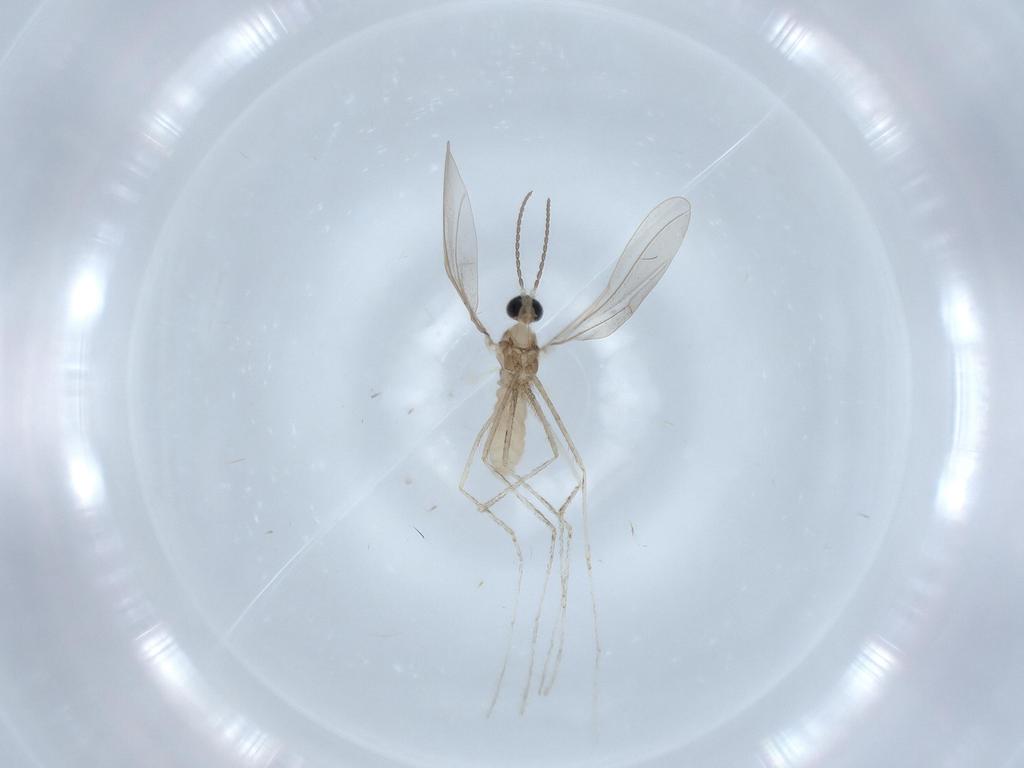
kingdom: Animalia
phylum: Arthropoda
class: Insecta
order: Diptera
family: Cecidomyiidae
